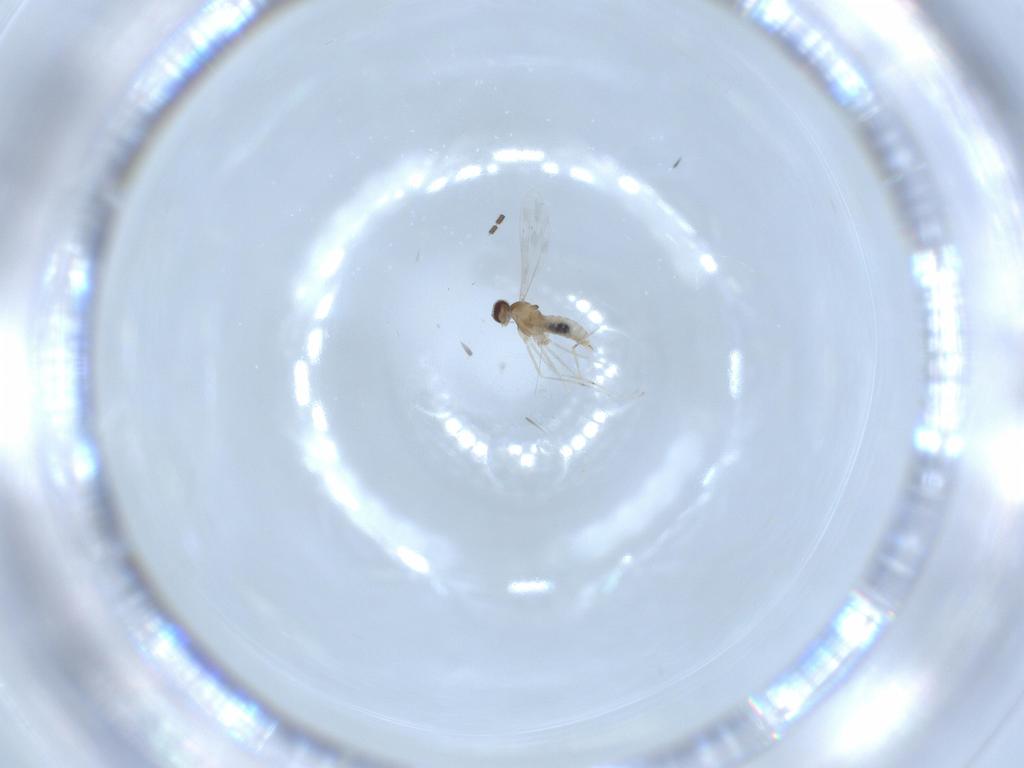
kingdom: Animalia
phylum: Arthropoda
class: Insecta
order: Diptera
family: Cecidomyiidae
